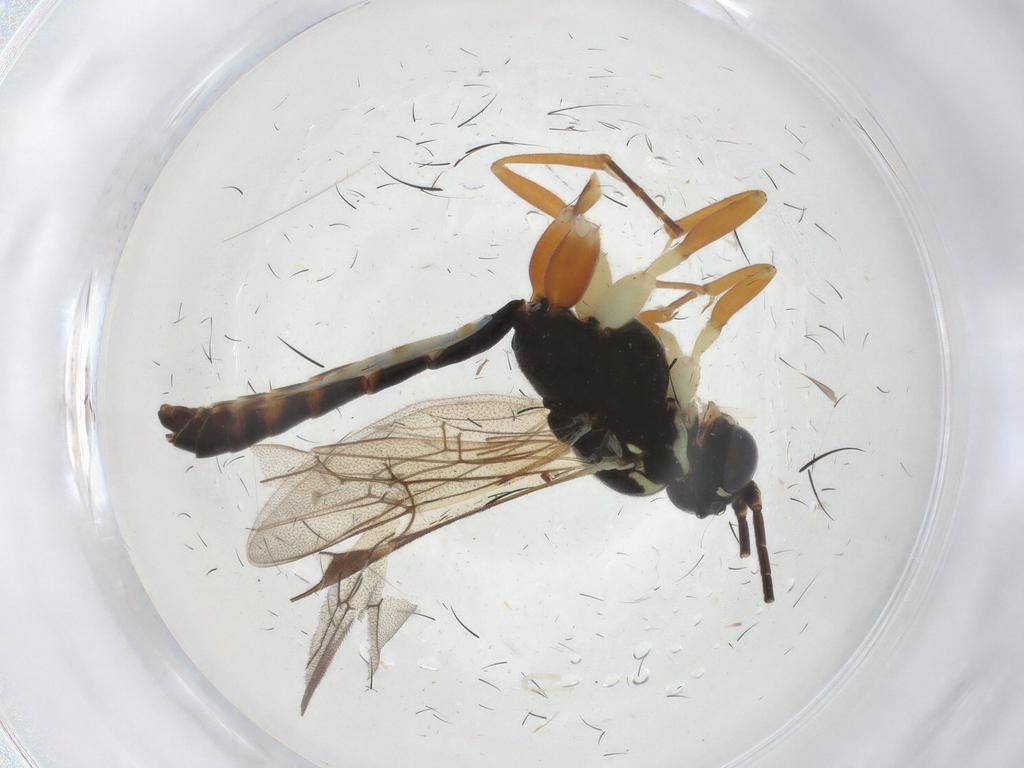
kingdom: Animalia
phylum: Arthropoda
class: Insecta
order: Hymenoptera
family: Ichneumonidae
